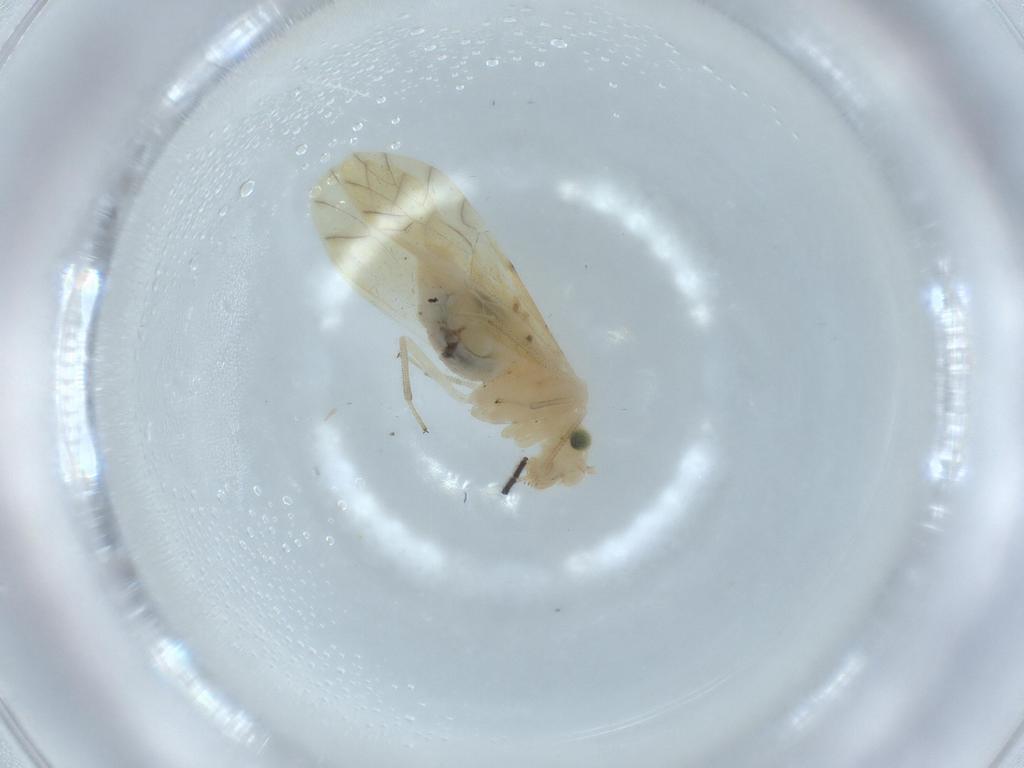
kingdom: Animalia
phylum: Arthropoda
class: Insecta
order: Psocodea
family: Caeciliusidae
